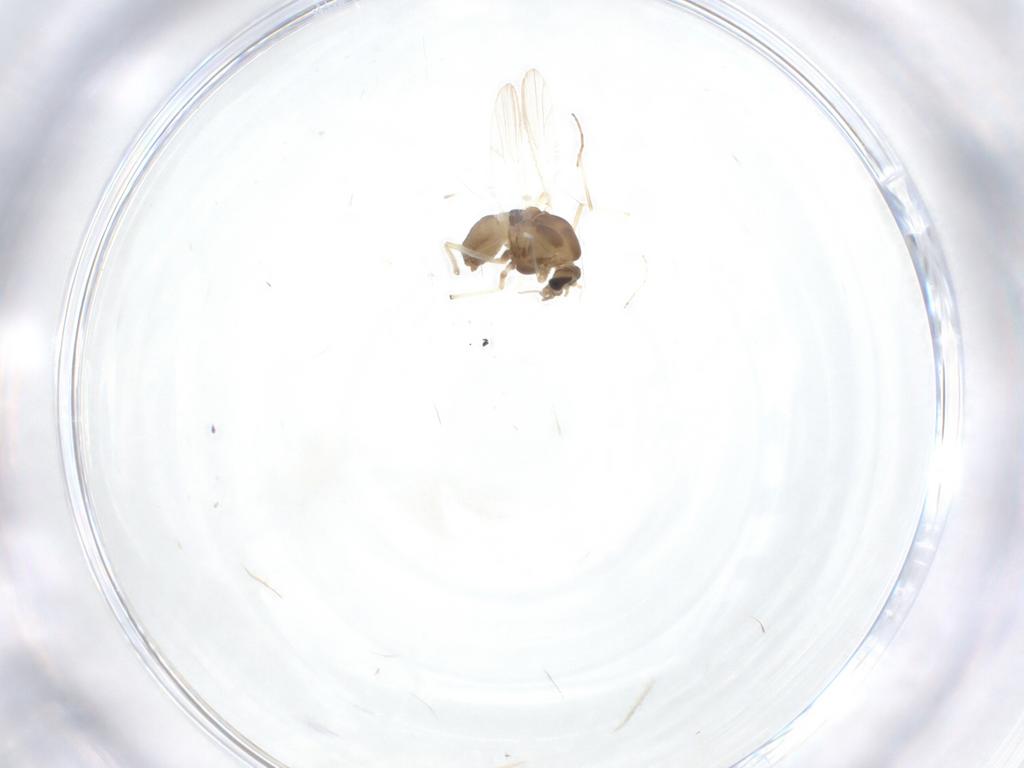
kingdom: Animalia
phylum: Arthropoda
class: Insecta
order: Diptera
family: Chironomidae
